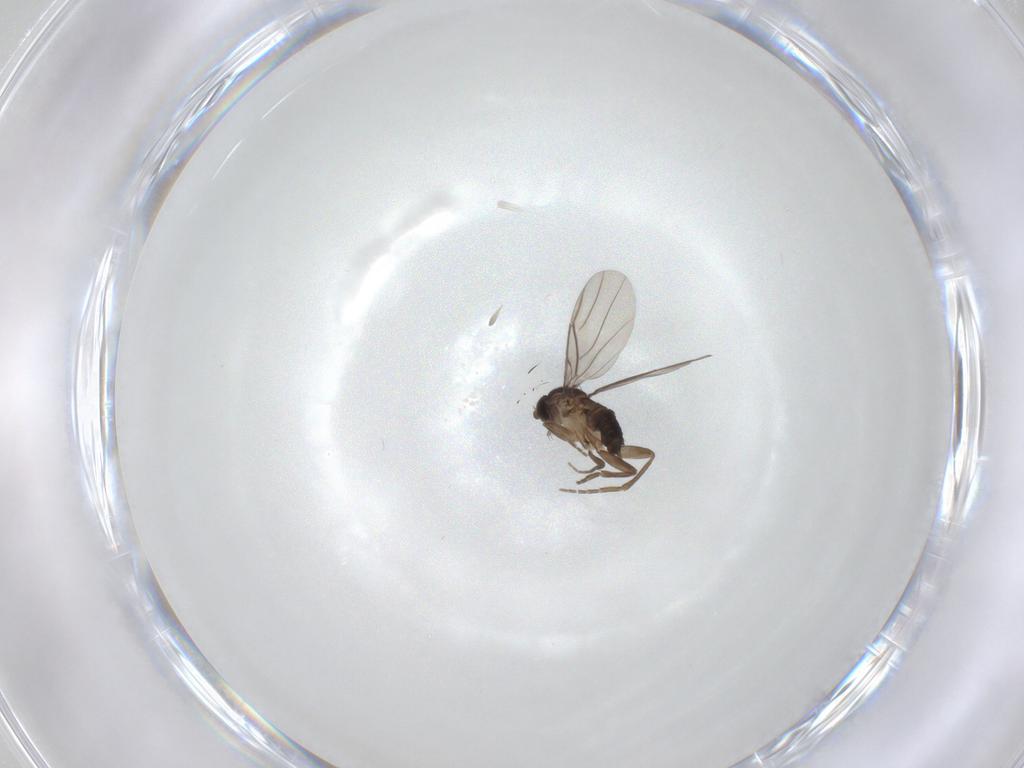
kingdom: Animalia
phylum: Arthropoda
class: Insecta
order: Diptera
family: Phoridae
